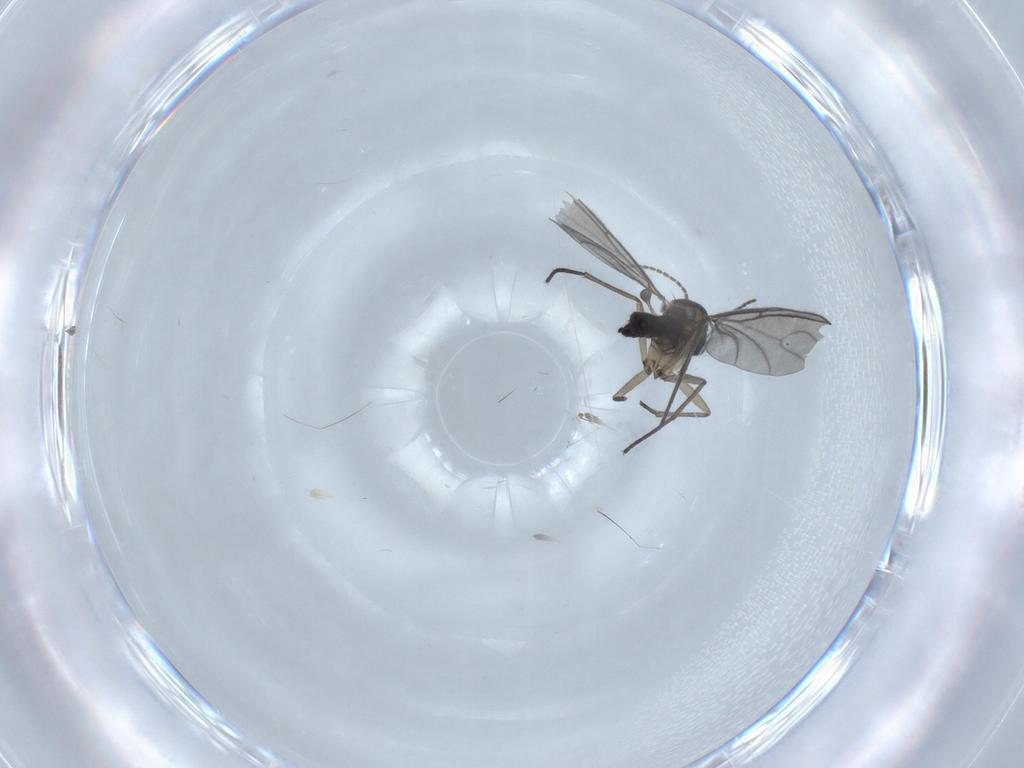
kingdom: Animalia
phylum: Arthropoda
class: Insecta
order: Diptera
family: Sciaridae
